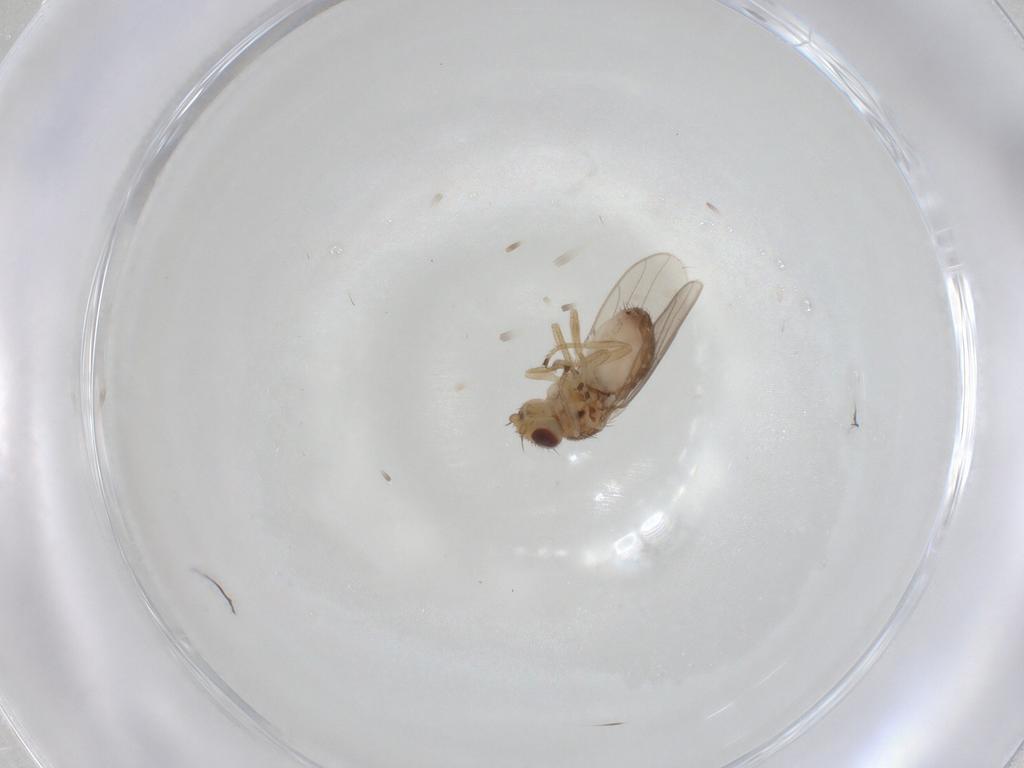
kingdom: Animalia
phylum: Arthropoda
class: Insecta
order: Diptera
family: Chloropidae
